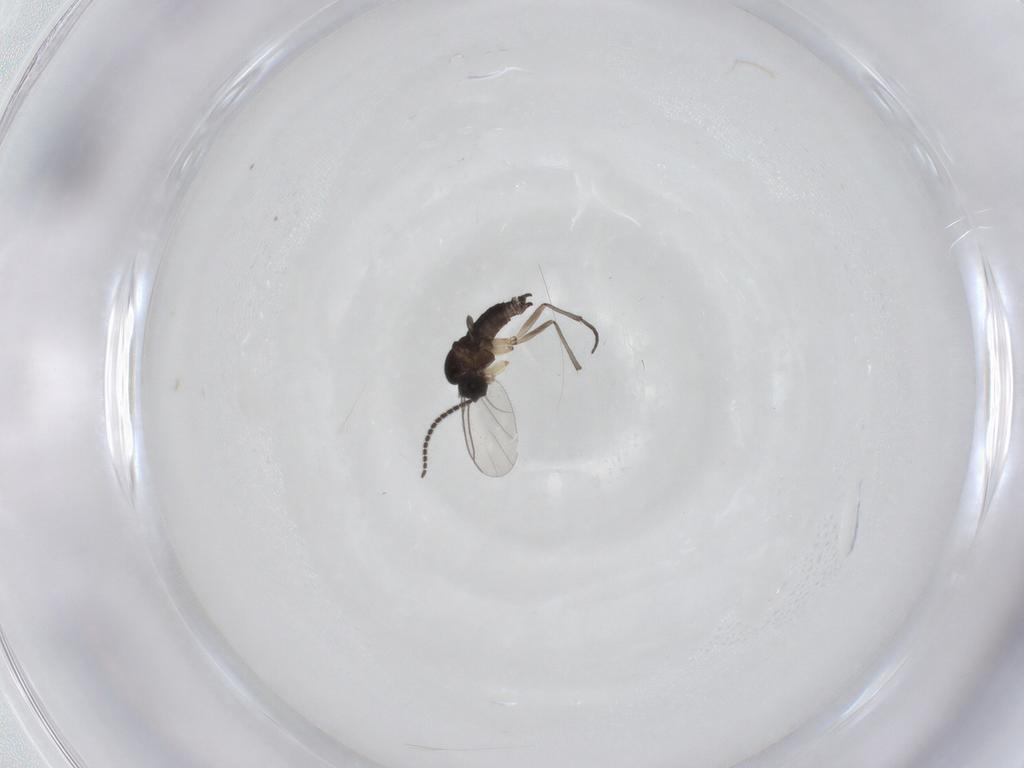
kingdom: Animalia
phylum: Arthropoda
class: Insecta
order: Diptera
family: Sciaridae
